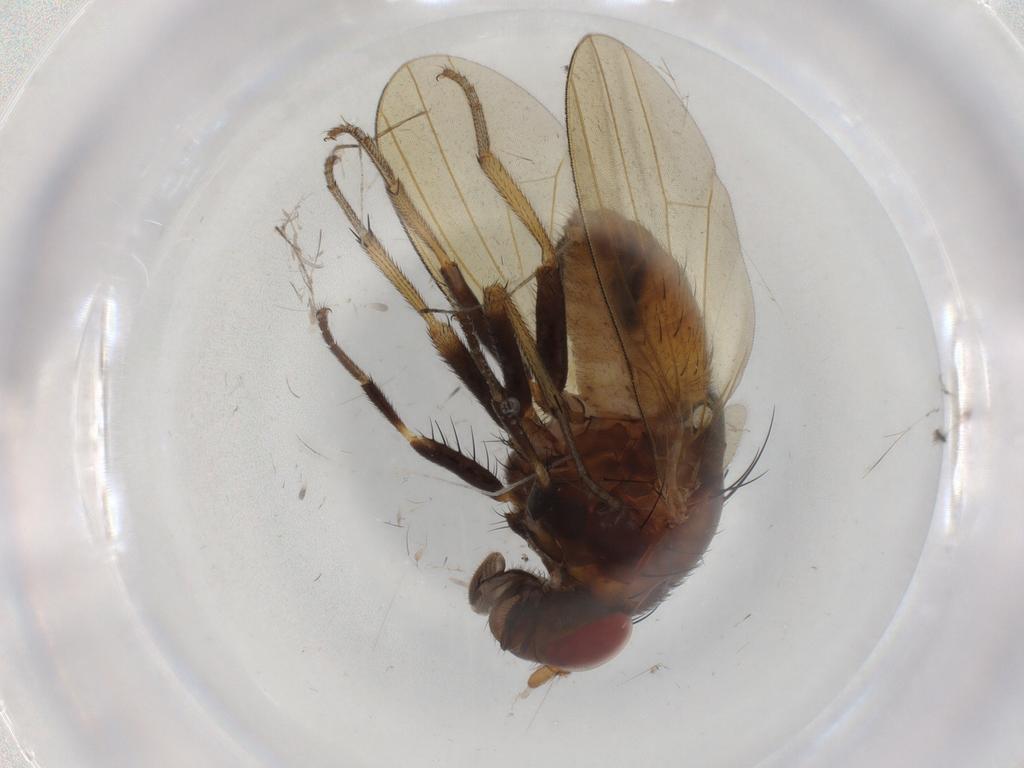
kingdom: Animalia
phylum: Arthropoda
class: Insecta
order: Diptera
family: Cecidomyiidae
